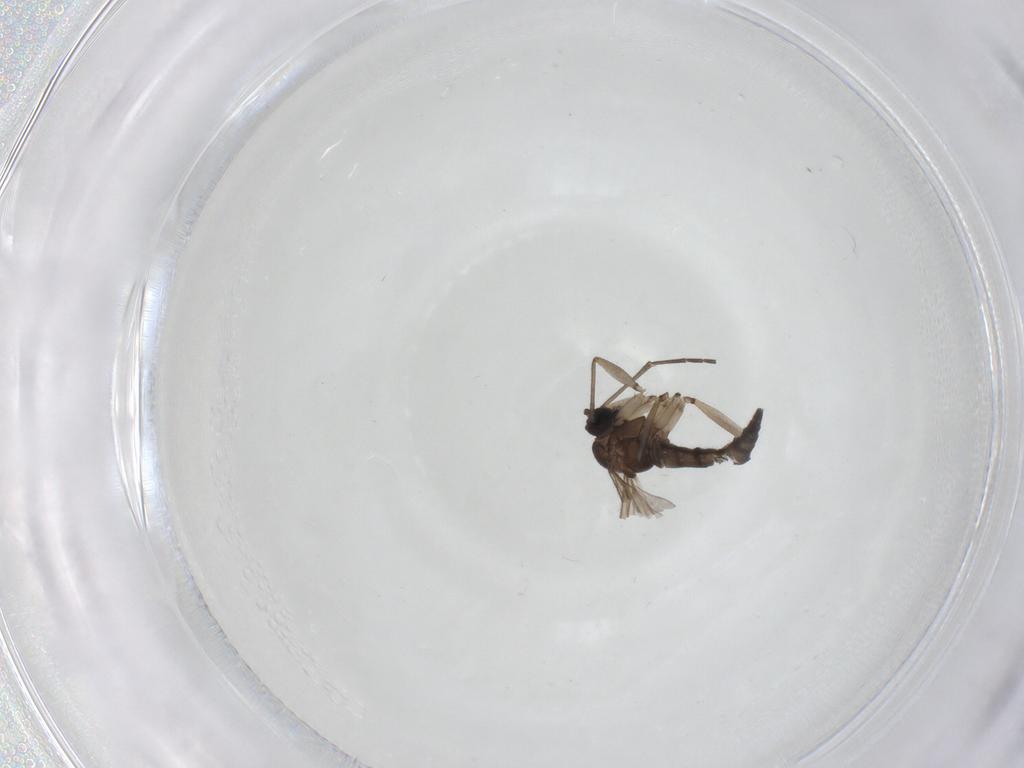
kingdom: Animalia
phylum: Arthropoda
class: Insecta
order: Diptera
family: Sciaridae
